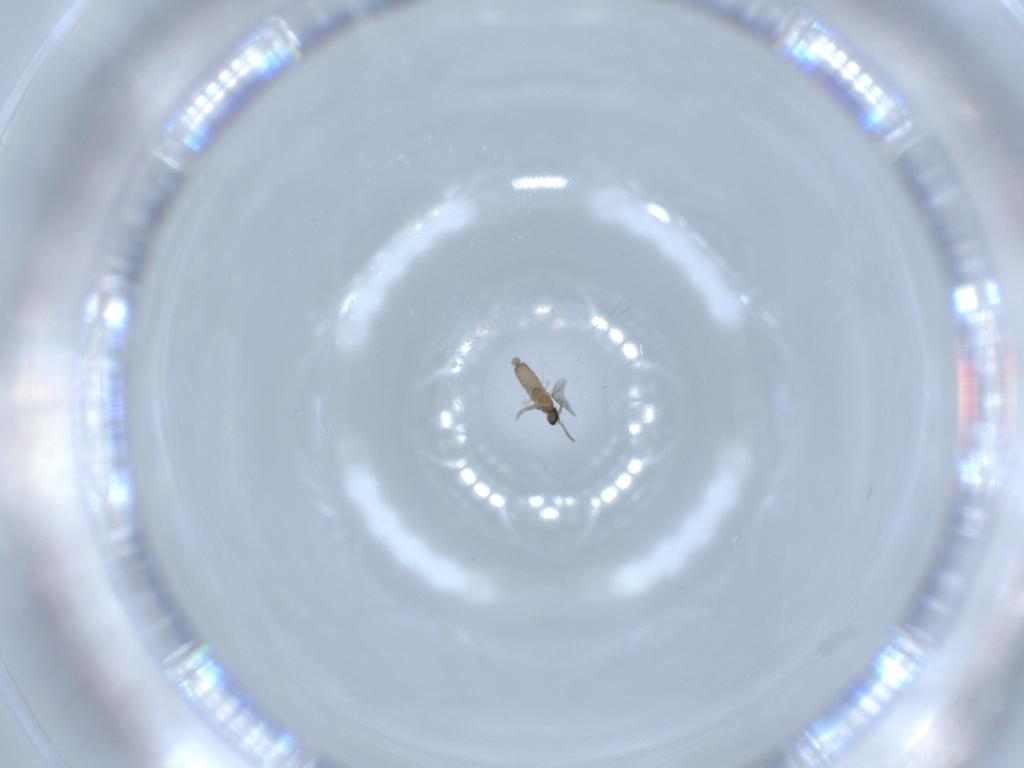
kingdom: Animalia
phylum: Arthropoda
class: Insecta
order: Diptera
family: Cecidomyiidae
